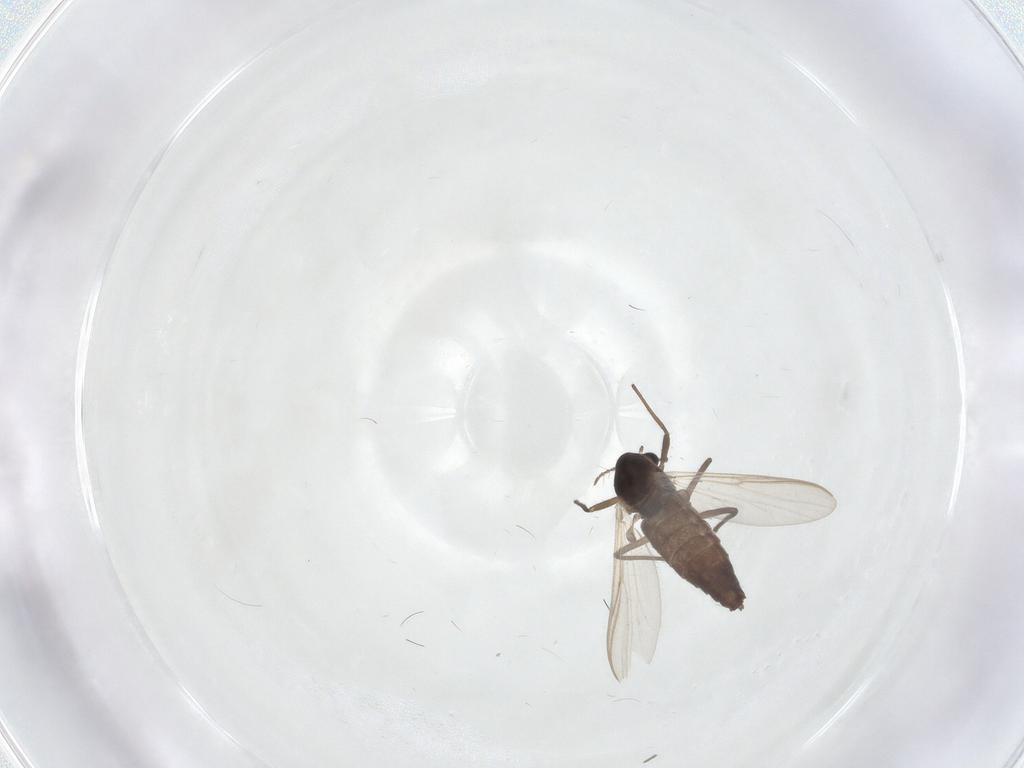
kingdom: Animalia
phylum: Arthropoda
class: Insecta
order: Diptera
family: Chironomidae
